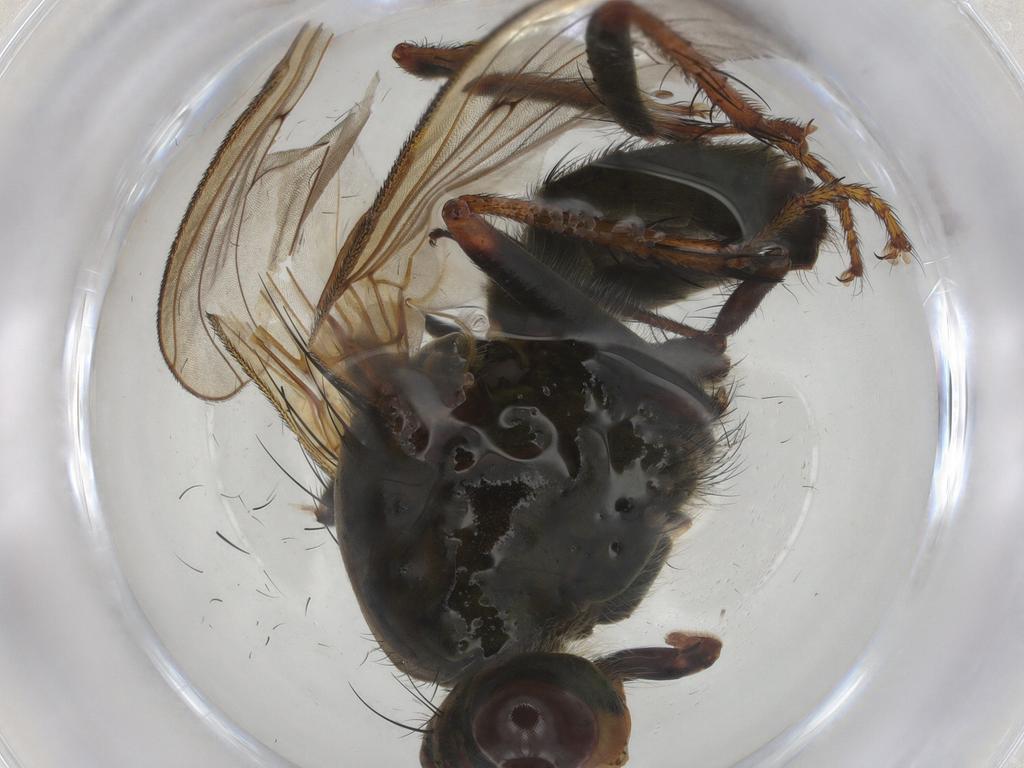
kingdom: Animalia
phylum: Arthropoda
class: Insecta
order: Diptera
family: Scathophagidae
